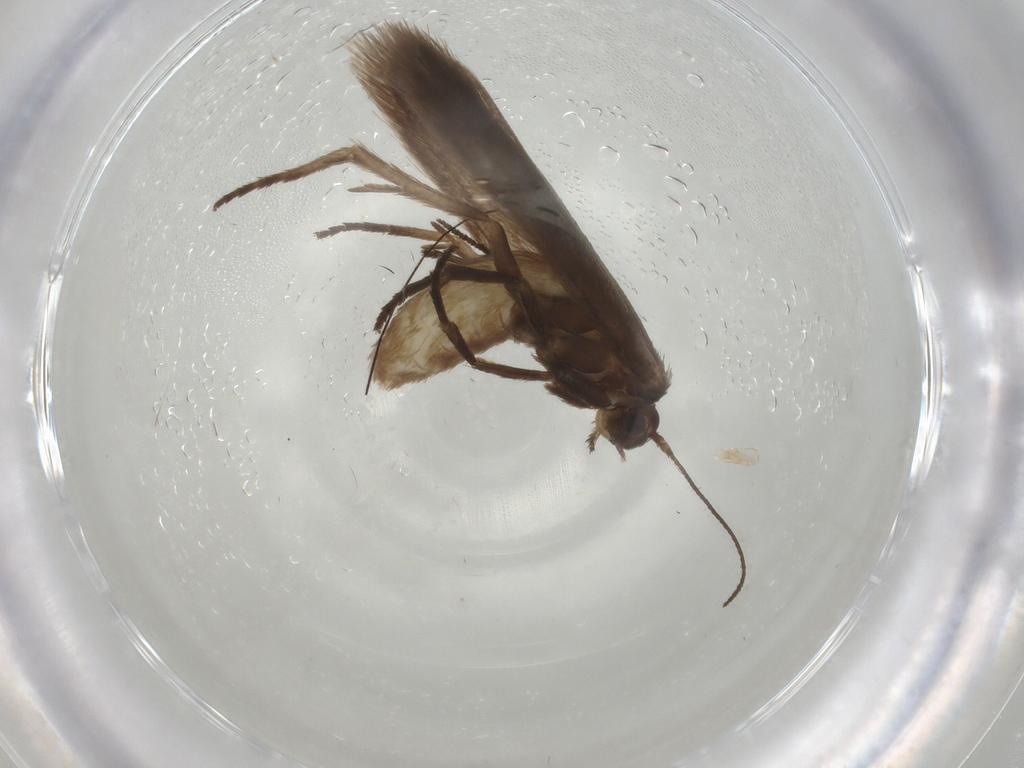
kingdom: Animalia
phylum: Arthropoda
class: Insecta
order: Lepidoptera
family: Limacodidae
